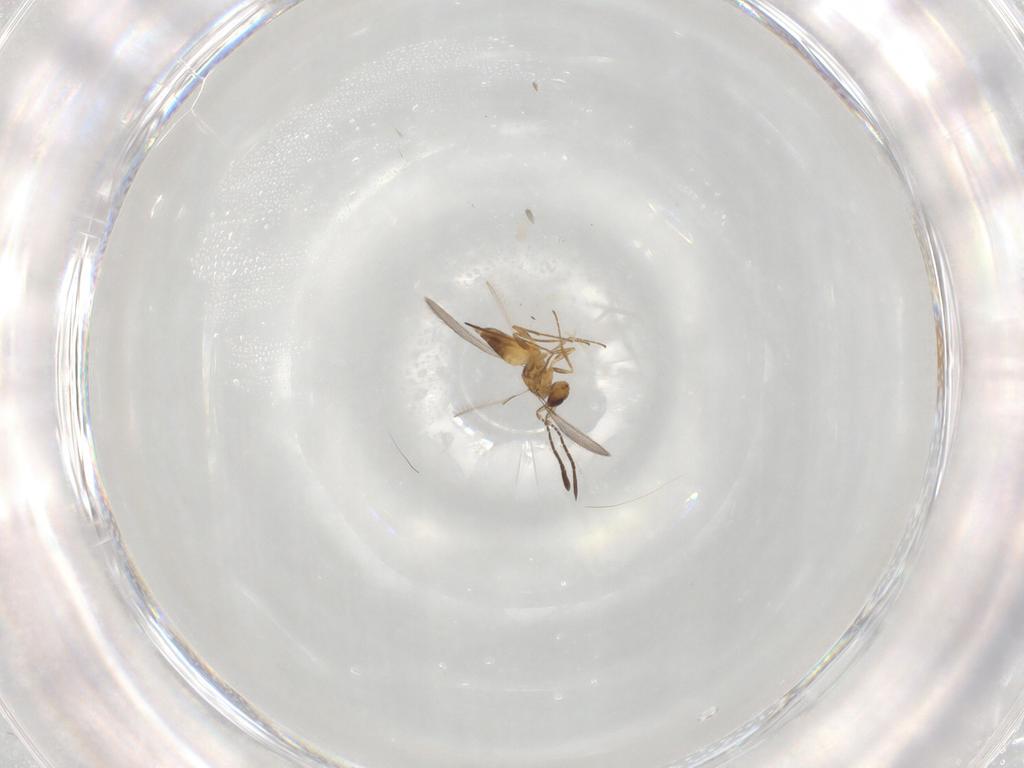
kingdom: Animalia
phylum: Arthropoda
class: Insecta
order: Hymenoptera
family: Mymaridae
